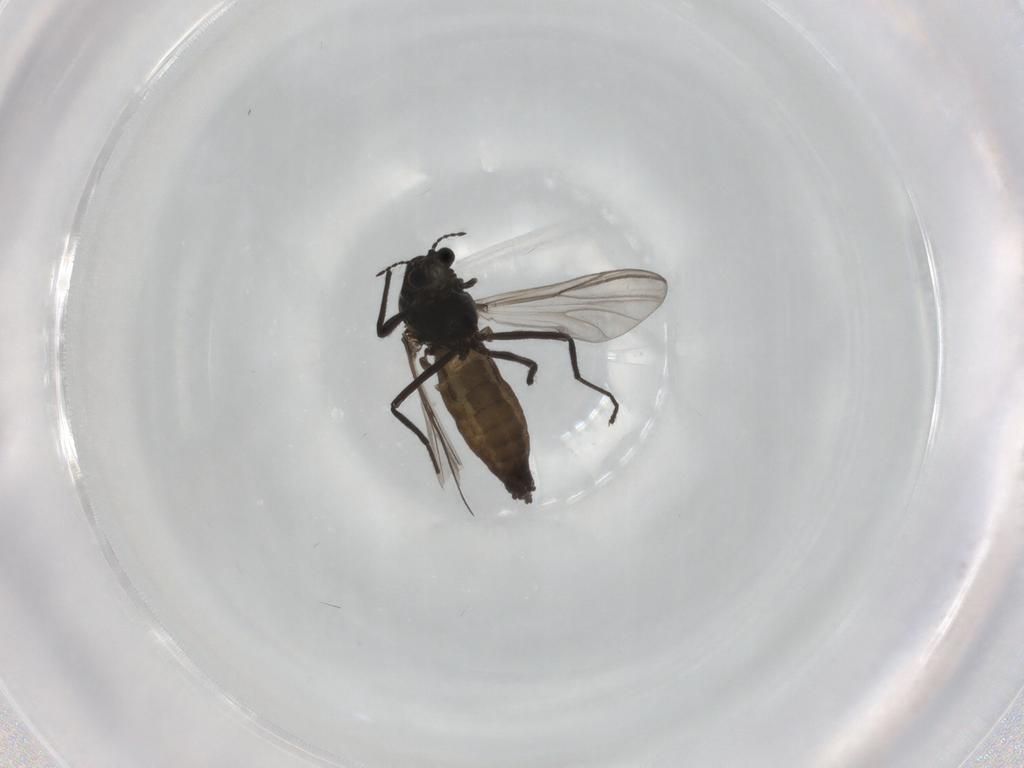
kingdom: Animalia
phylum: Arthropoda
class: Insecta
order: Diptera
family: Chironomidae
